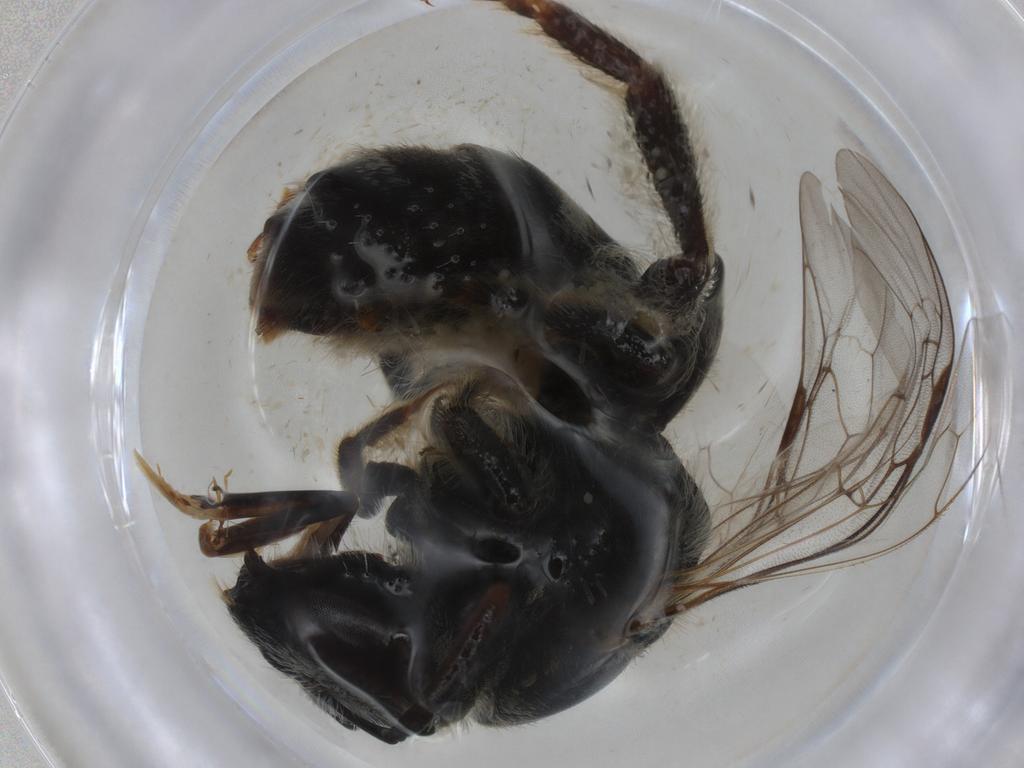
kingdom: Animalia
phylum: Arthropoda
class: Insecta
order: Hymenoptera
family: Halictidae
